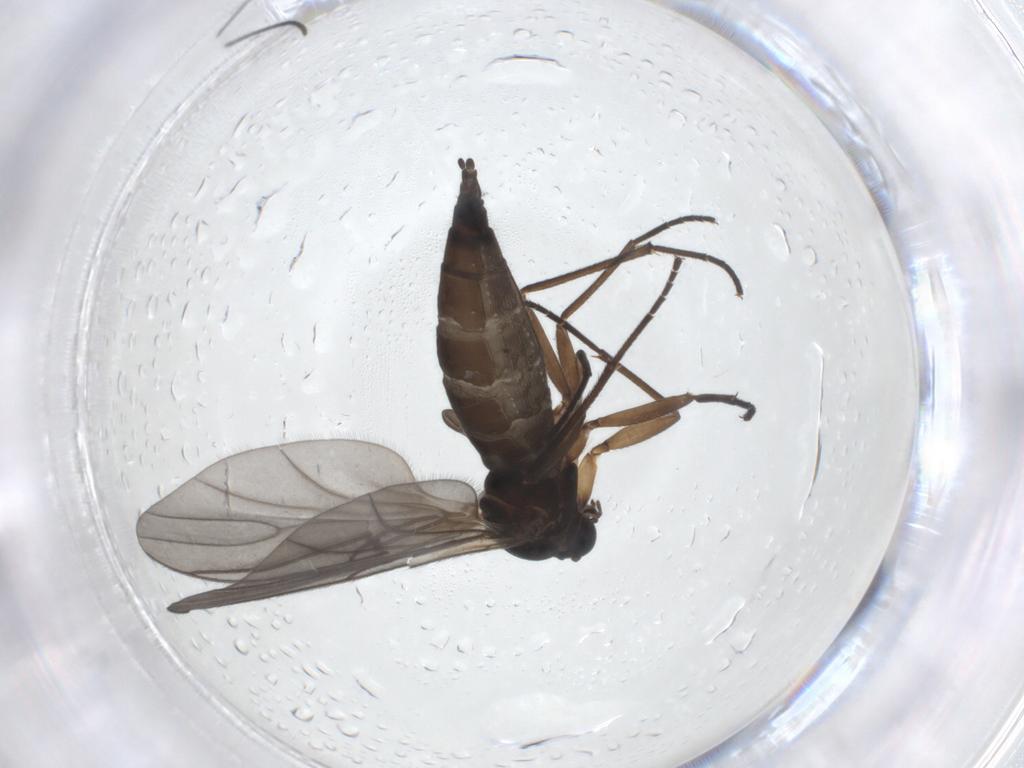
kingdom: Animalia
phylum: Arthropoda
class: Insecta
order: Diptera
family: Sciaridae
